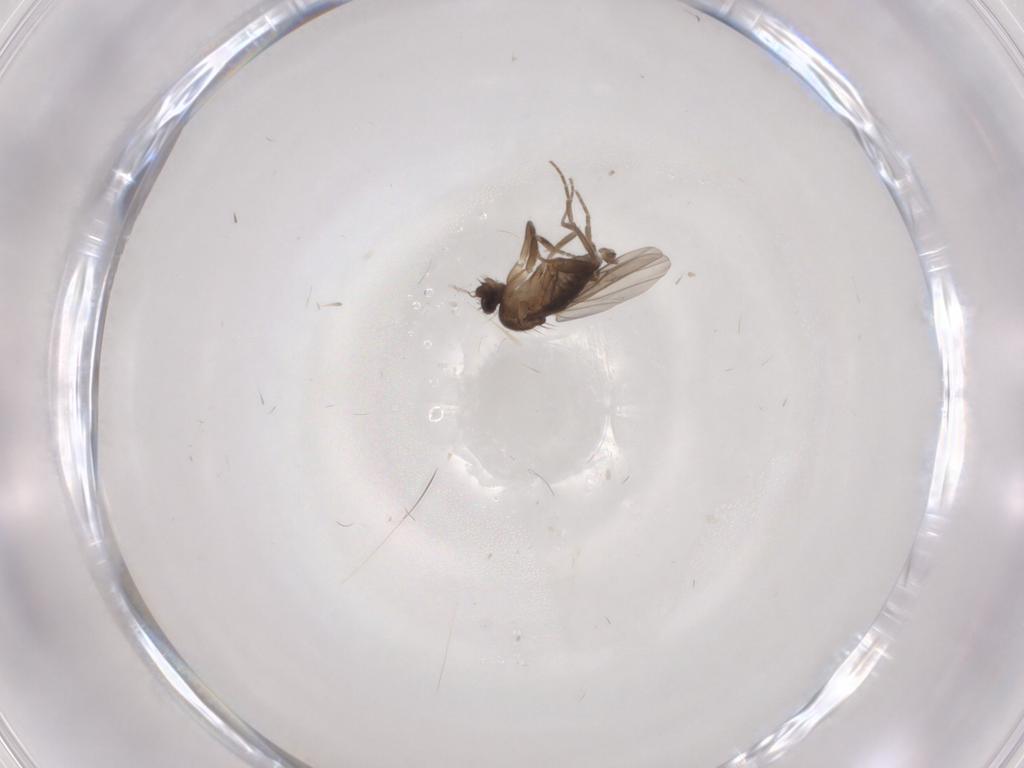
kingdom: Animalia
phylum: Arthropoda
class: Insecta
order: Diptera
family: Phoridae
